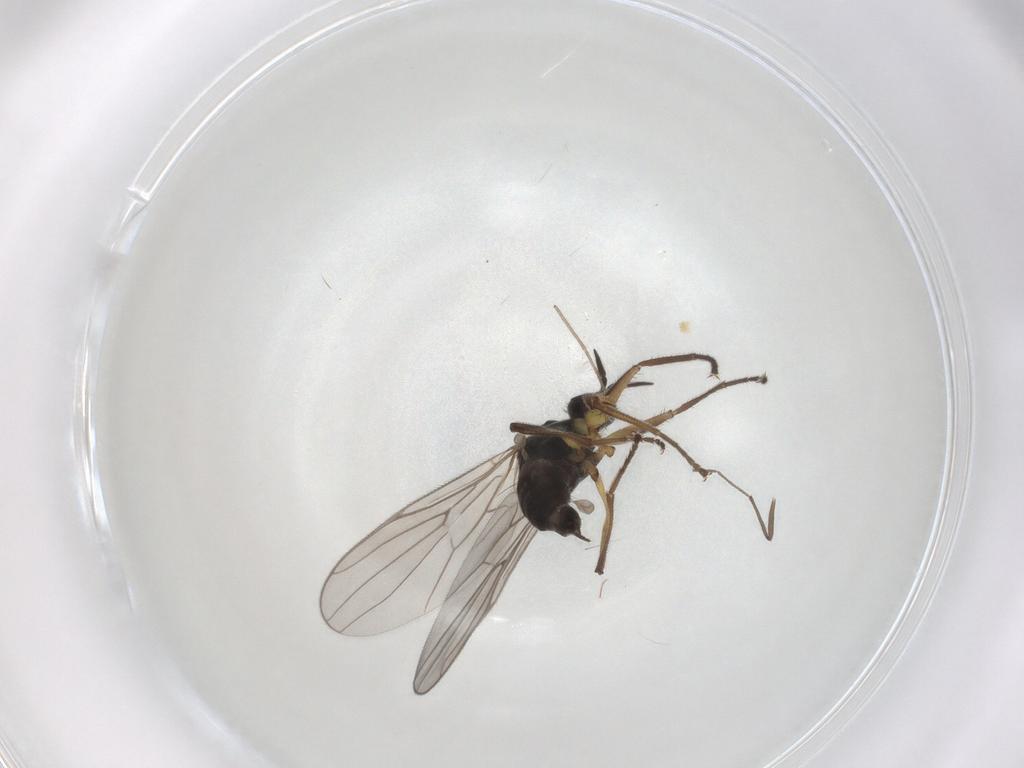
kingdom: Animalia
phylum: Arthropoda
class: Insecta
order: Diptera
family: Hybotidae
